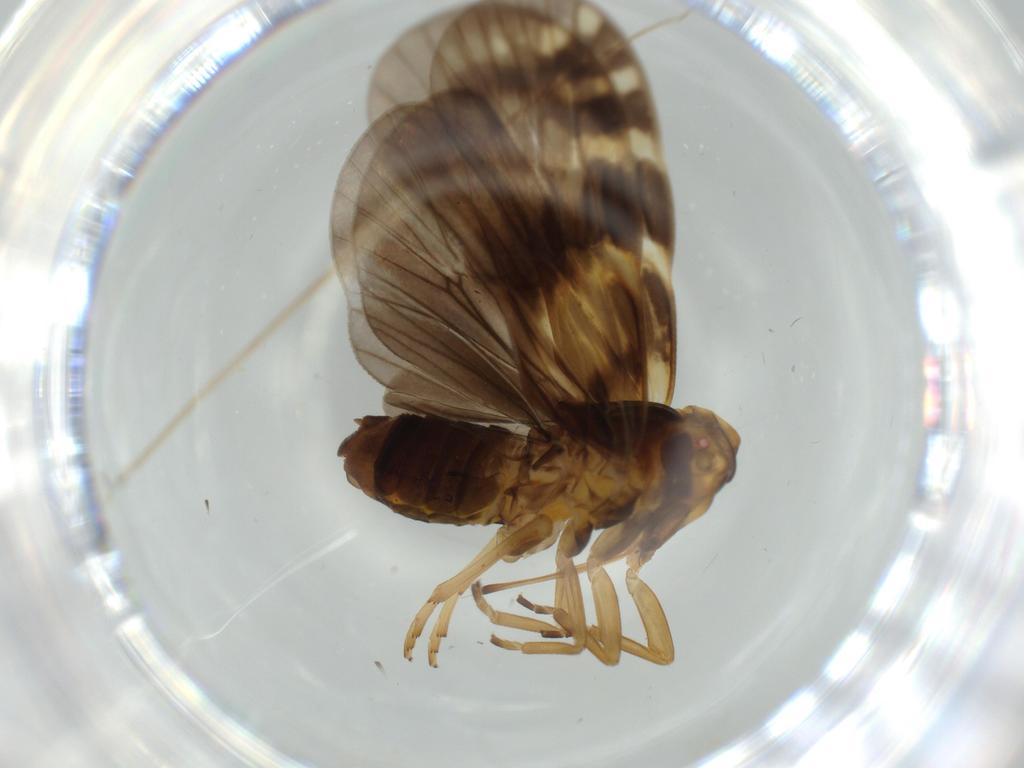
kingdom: Animalia
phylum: Arthropoda
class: Insecta
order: Hemiptera
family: Cixiidae
